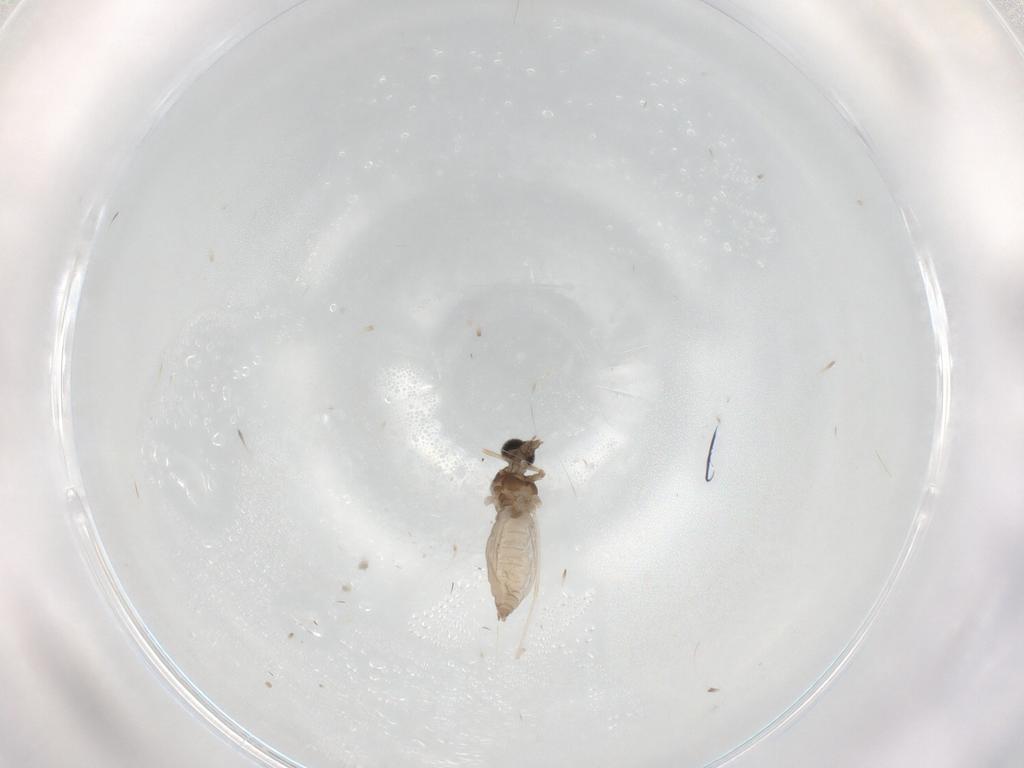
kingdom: Animalia
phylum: Arthropoda
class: Insecta
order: Diptera
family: Cecidomyiidae
